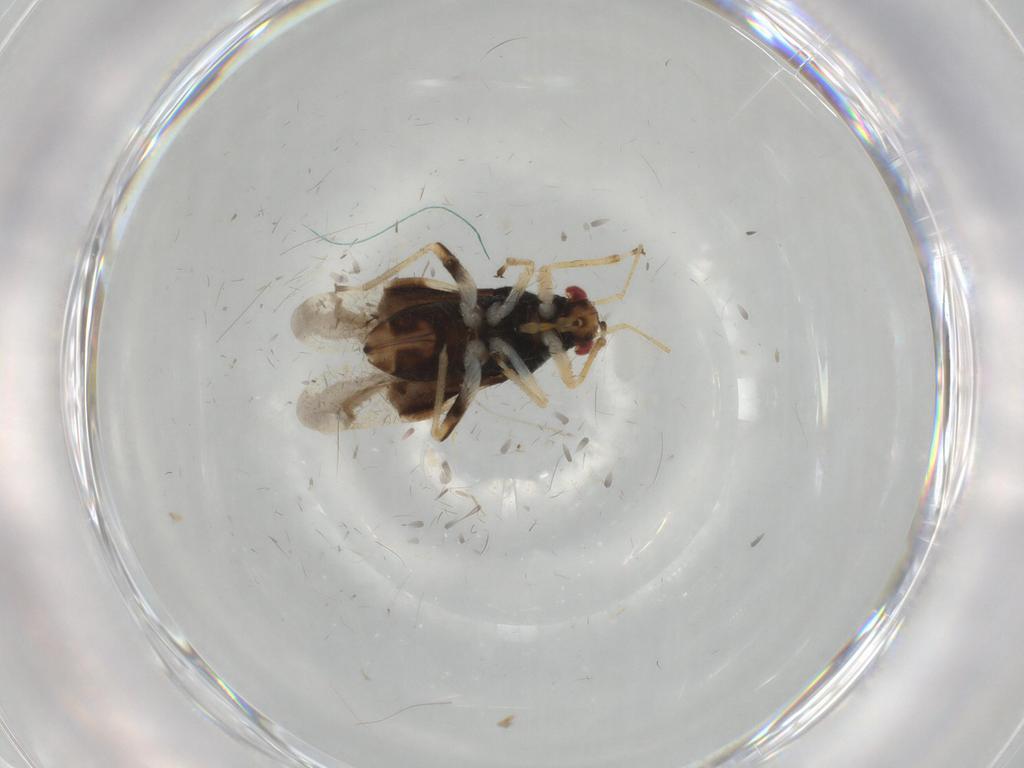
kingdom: Animalia
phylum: Arthropoda
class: Insecta
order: Hemiptera
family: Miridae
